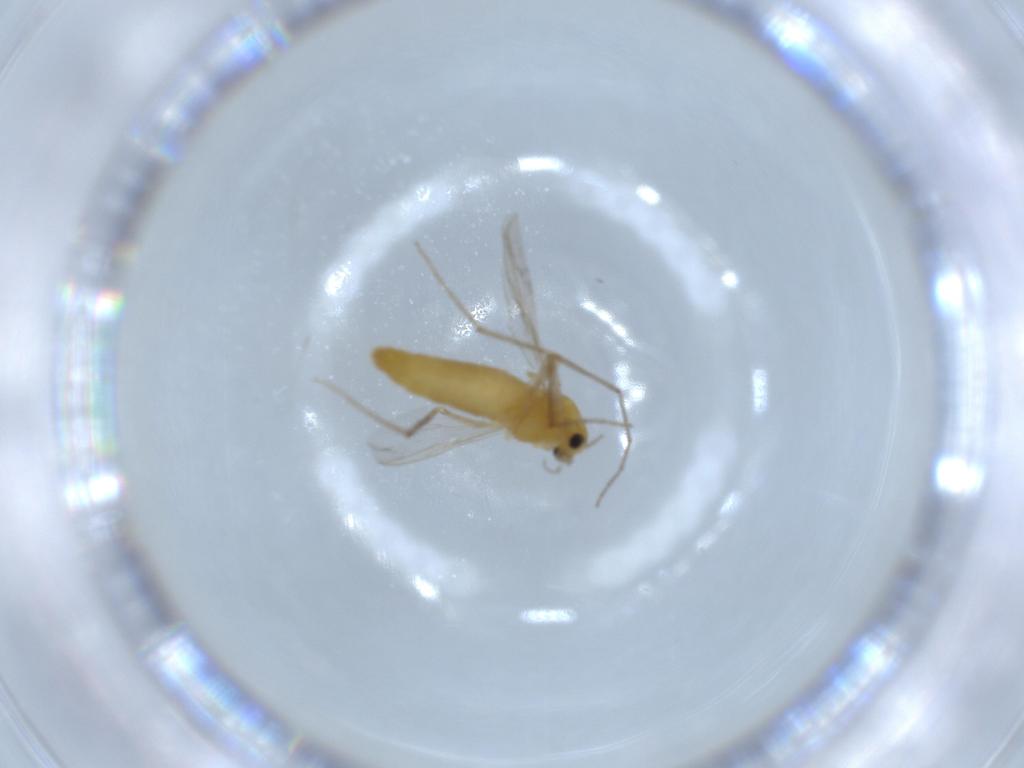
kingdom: Animalia
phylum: Arthropoda
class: Insecta
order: Diptera
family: Chironomidae
